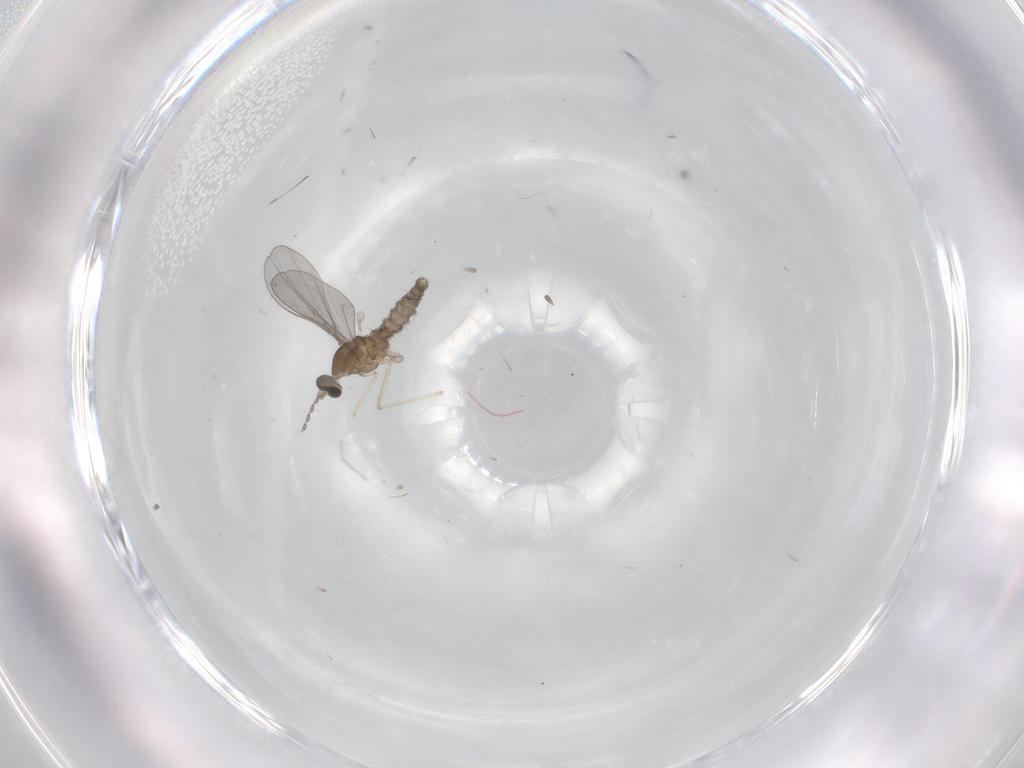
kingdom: Animalia
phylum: Arthropoda
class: Insecta
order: Diptera
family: Cecidomyiidae
